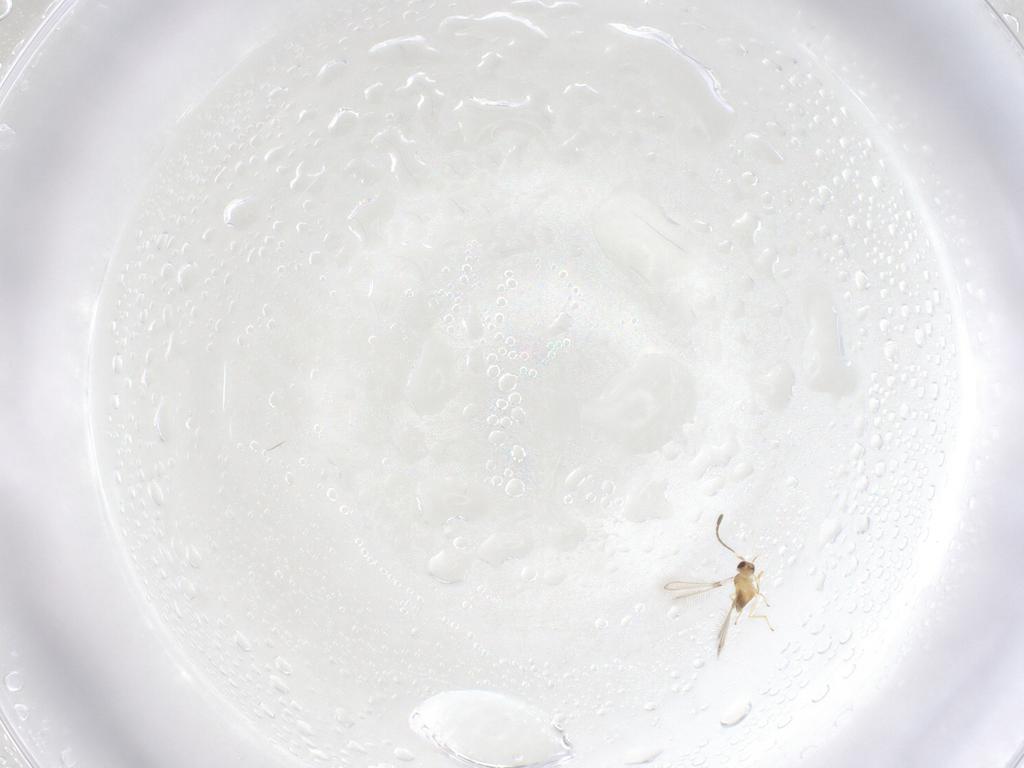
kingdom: Animalia
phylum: Arthropoda
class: Insecta
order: Hymenoptera
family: Mymaridae
